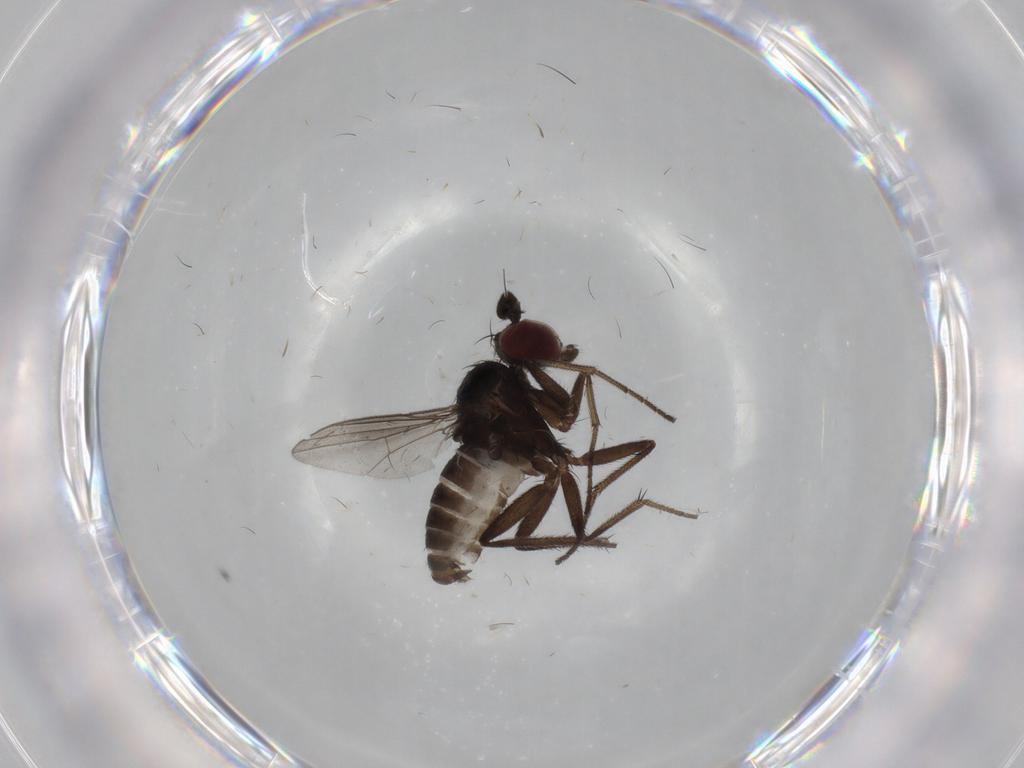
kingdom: Animalia
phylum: Arthropoda
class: Insecta
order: Diptera
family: Dolichopodidae
